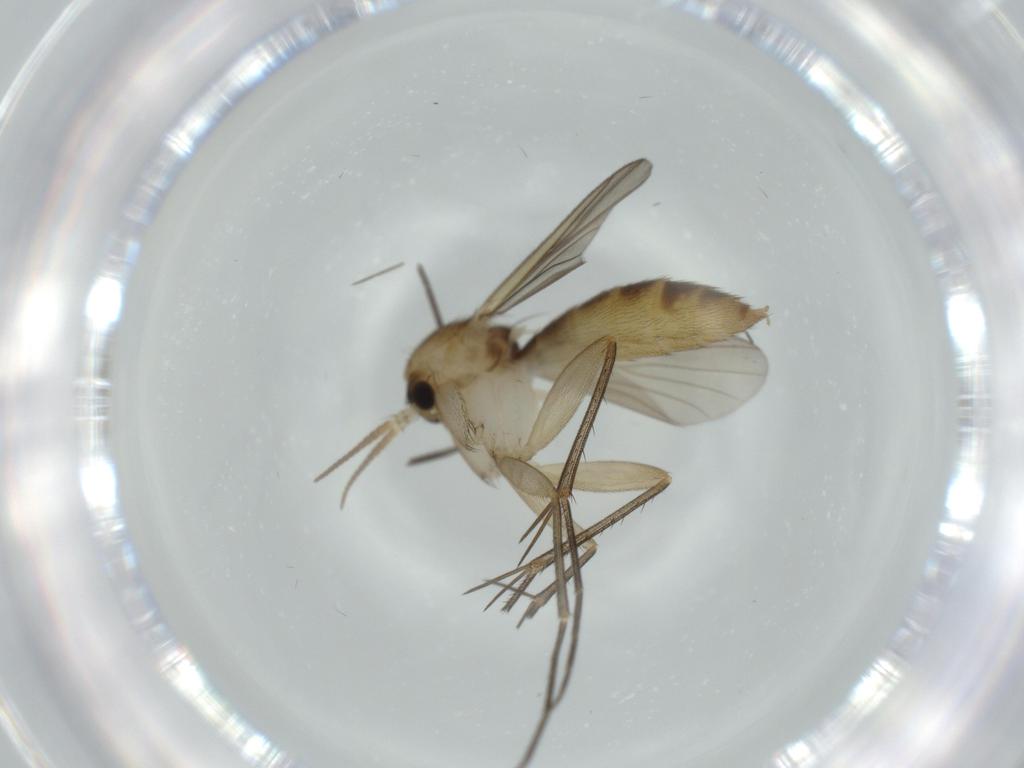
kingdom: Animalia
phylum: Arthropoda
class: Insecta
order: Diptera
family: Mycetophilidae
